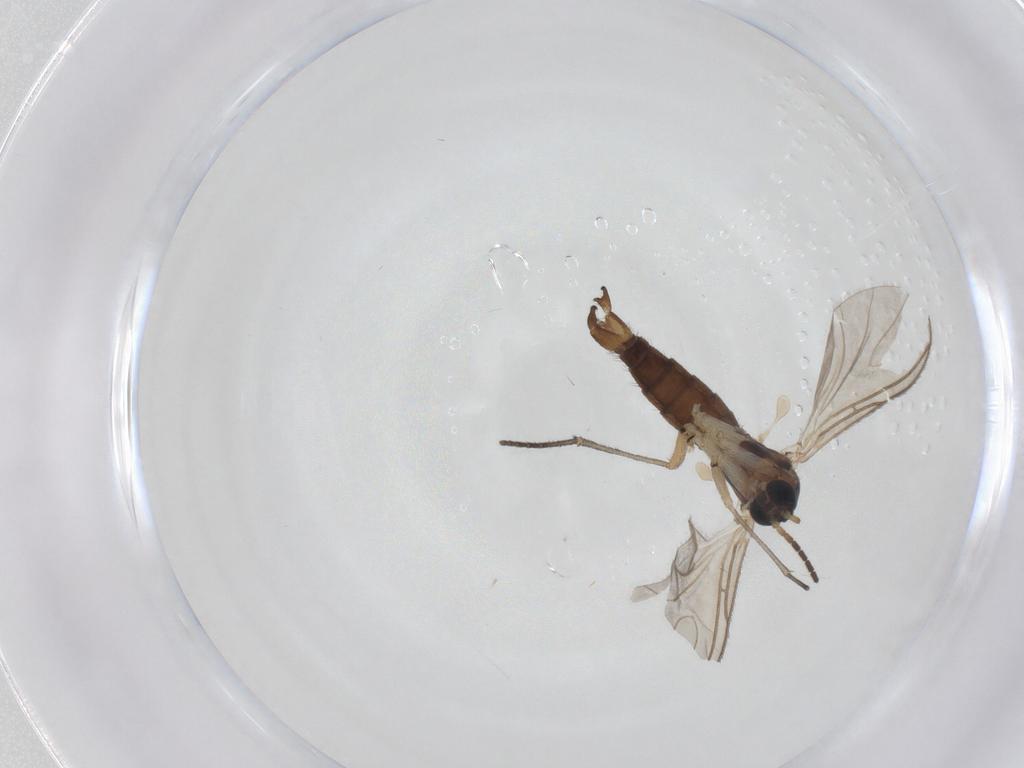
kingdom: Animalia
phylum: Arthropoda
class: Insecta
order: Diptera
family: Sciaridae
